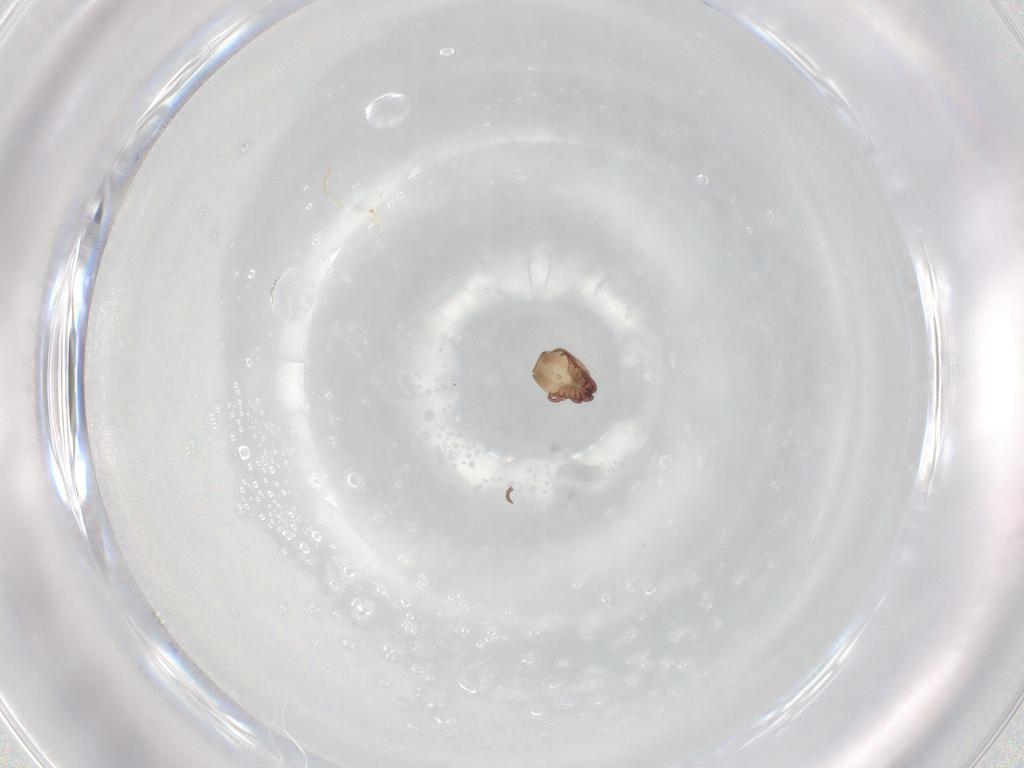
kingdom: Animalia
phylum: Arthropoda
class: Arachnida
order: Sarcoptiformes
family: Hermanniidae
